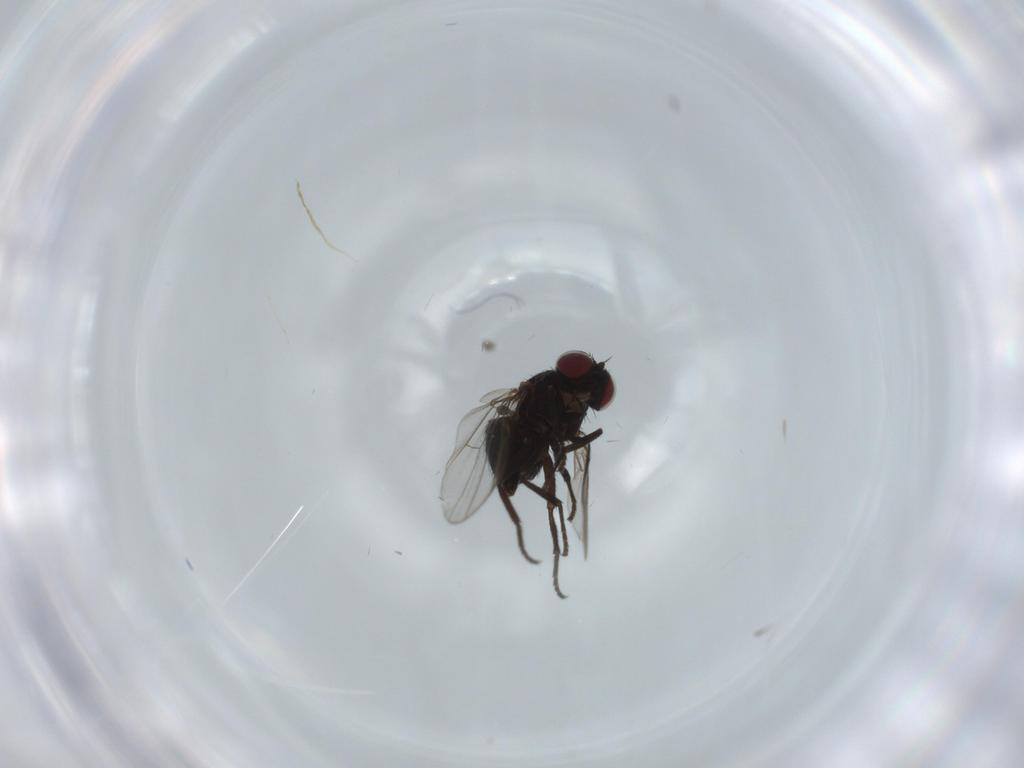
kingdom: Animalia
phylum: Arthropoda
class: Insecta
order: Diptera
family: Agromyzidae
